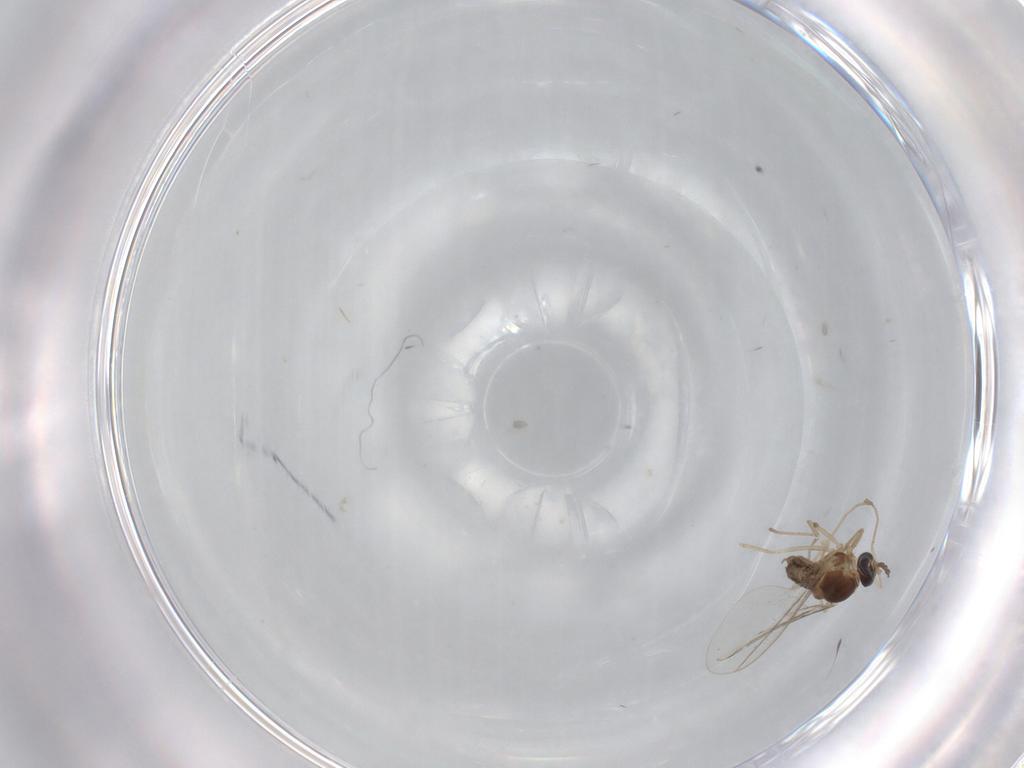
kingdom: Animalia
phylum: Arthropoda
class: Insecta
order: Diptera
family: Cecidomyiidae
